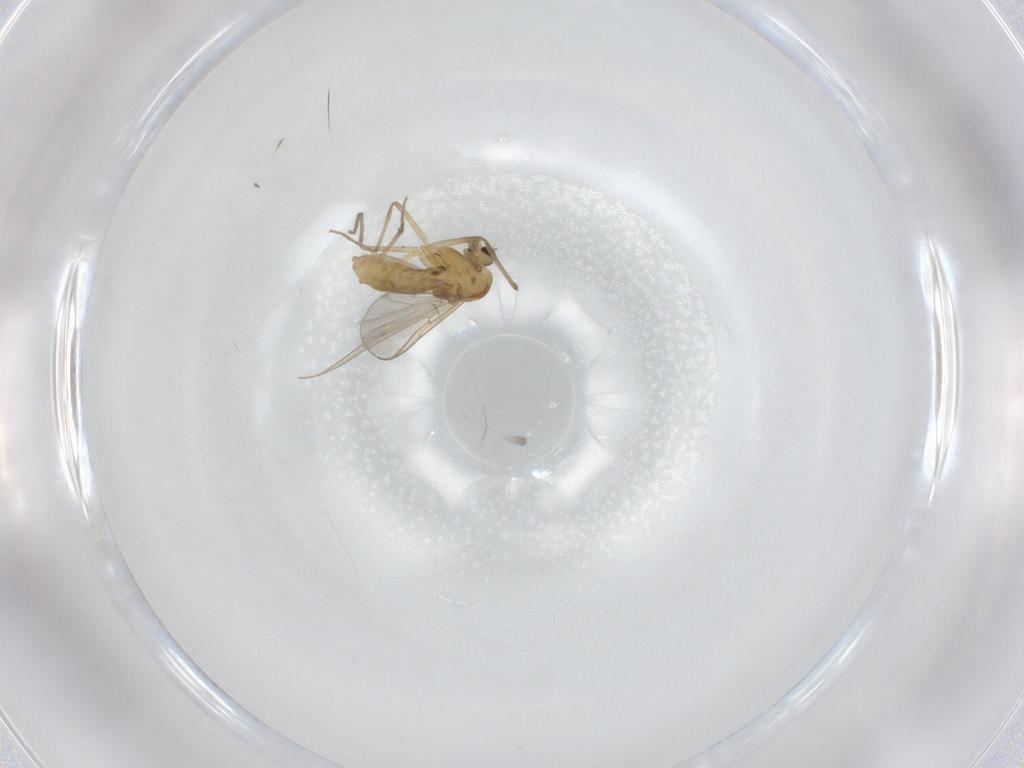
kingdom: Animalia
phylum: Arthropoda
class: Insecta
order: Diptera
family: Chironomidae
